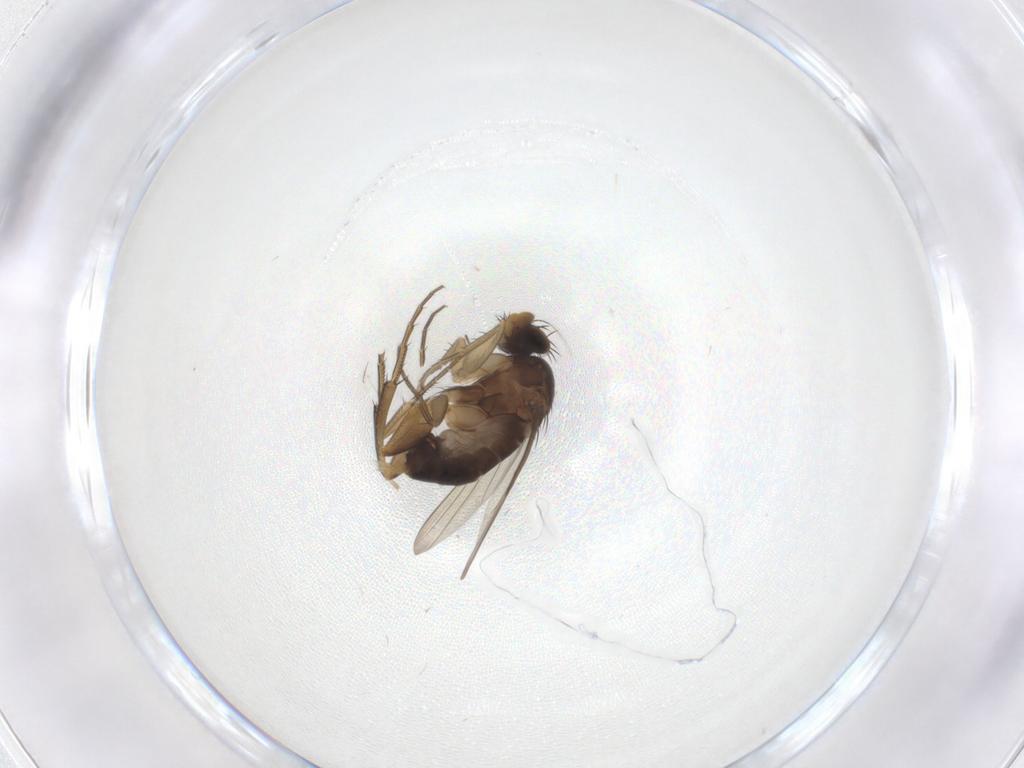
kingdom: Animalia
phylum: Arthropoda
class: Insecta
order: Diptera
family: Phoridae
